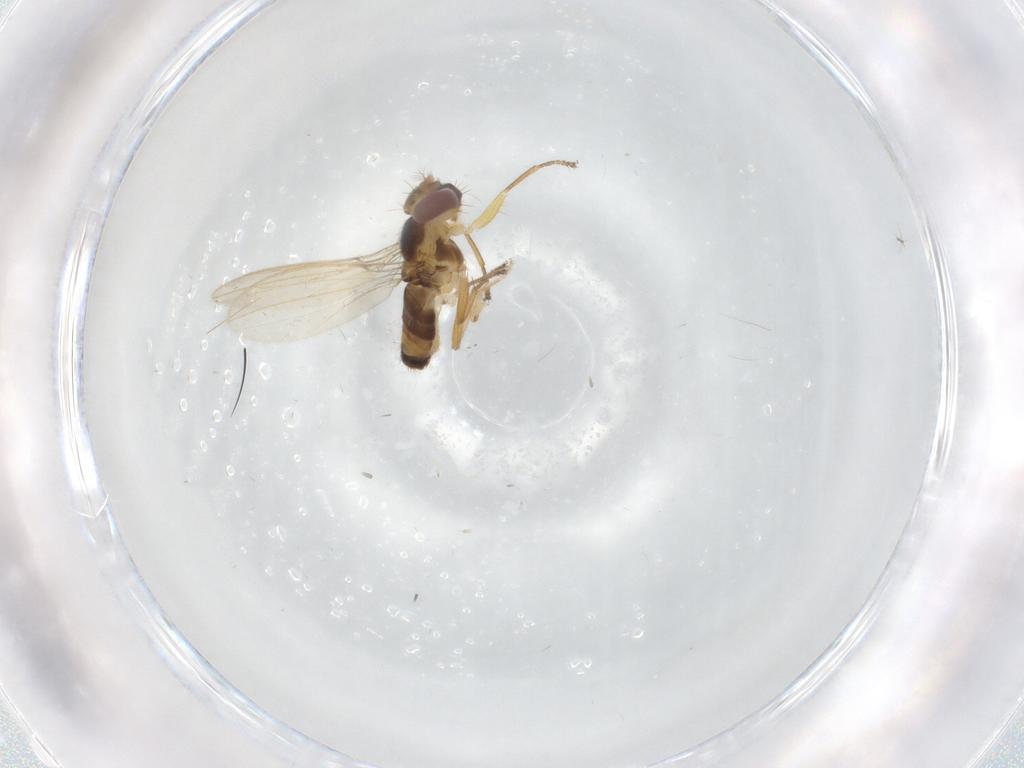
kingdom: Animalia
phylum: Arthropoda
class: Insecta
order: Diptera
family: Periscelididae
